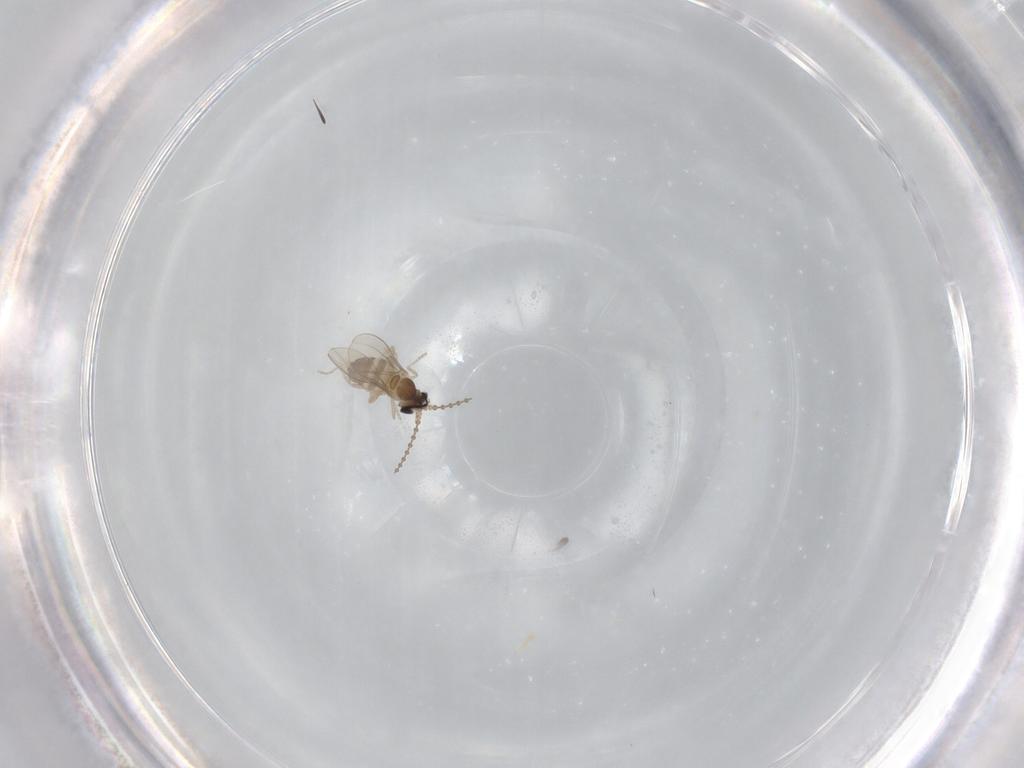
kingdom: Animalia
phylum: Arthropoda
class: Insecta
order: Diptera
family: Cecidomyiidae
